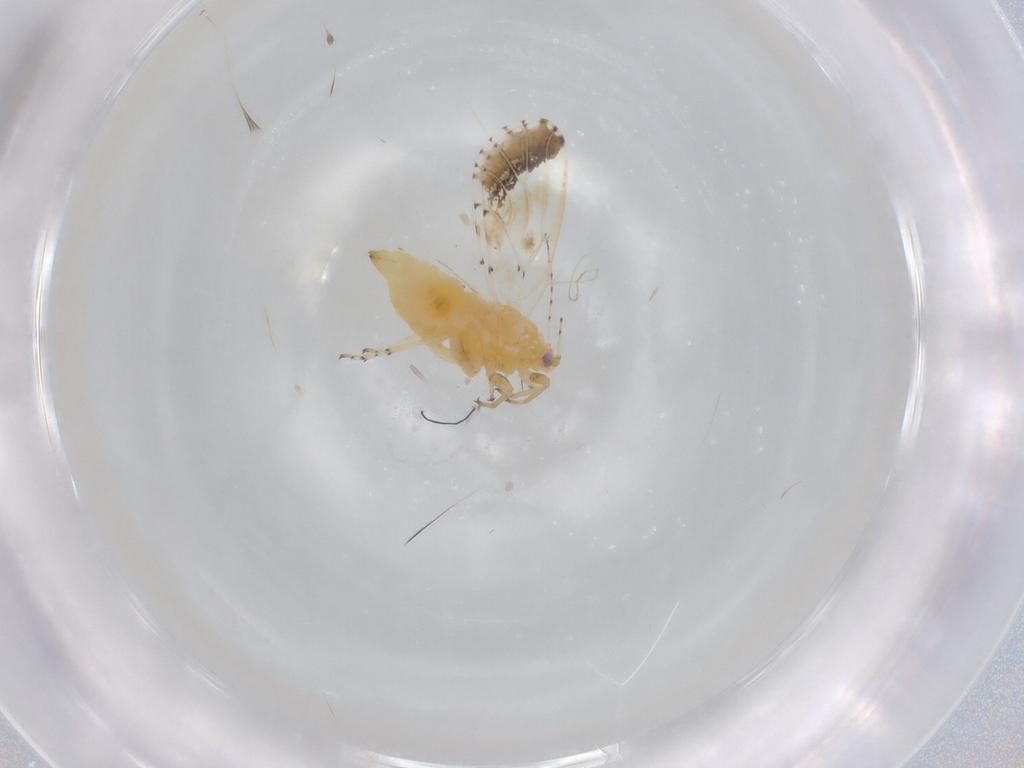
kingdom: Animalia
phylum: Arthropoda
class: Insecta
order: Hemiptera
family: Psyllidae
